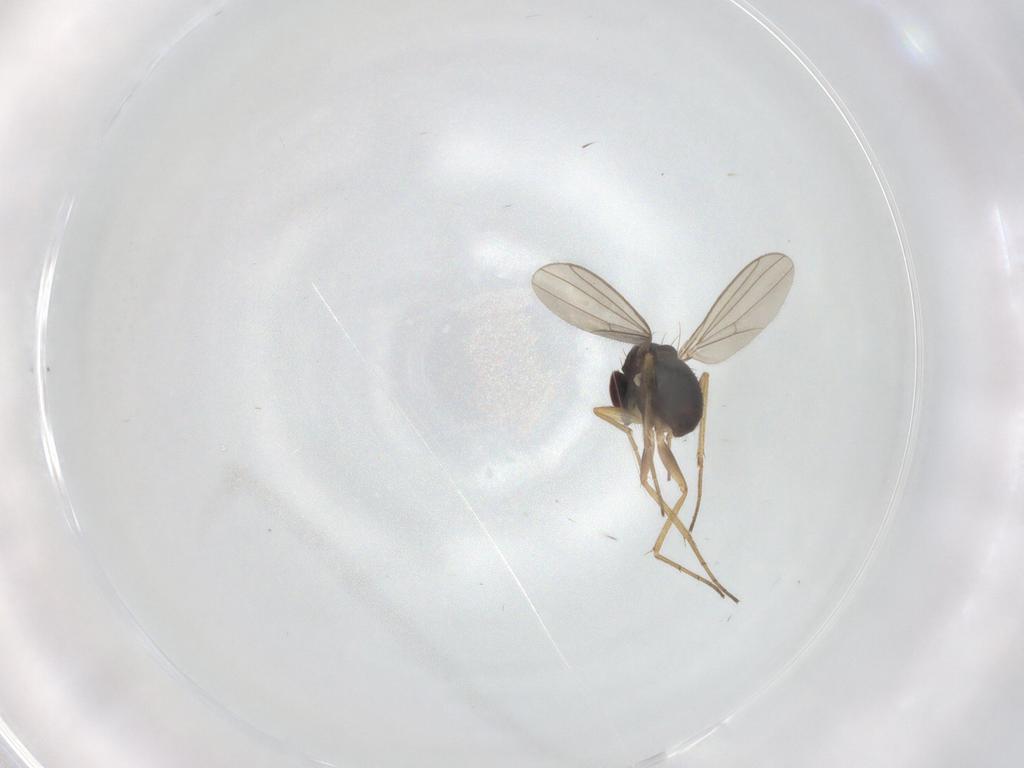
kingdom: Animalia
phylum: Arthropoda
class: Insecta
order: Diptera
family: Dolichopodidae
